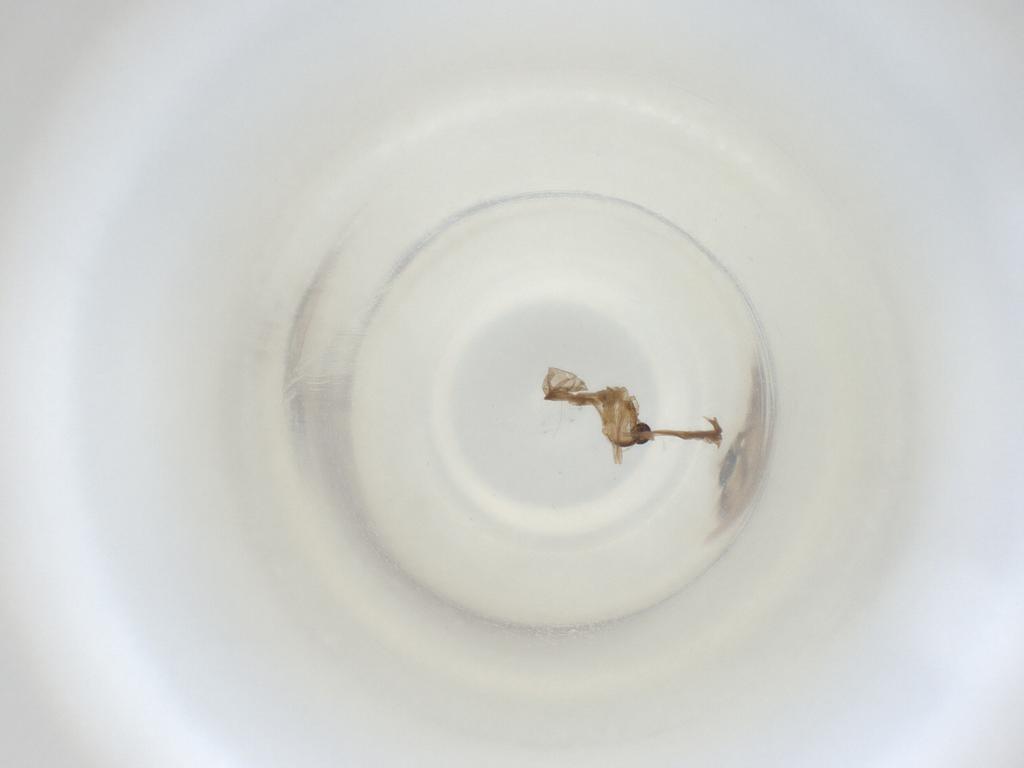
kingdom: Animalia
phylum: Arthropoda
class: Insecta
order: Diptera
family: Cecidomyiidae
